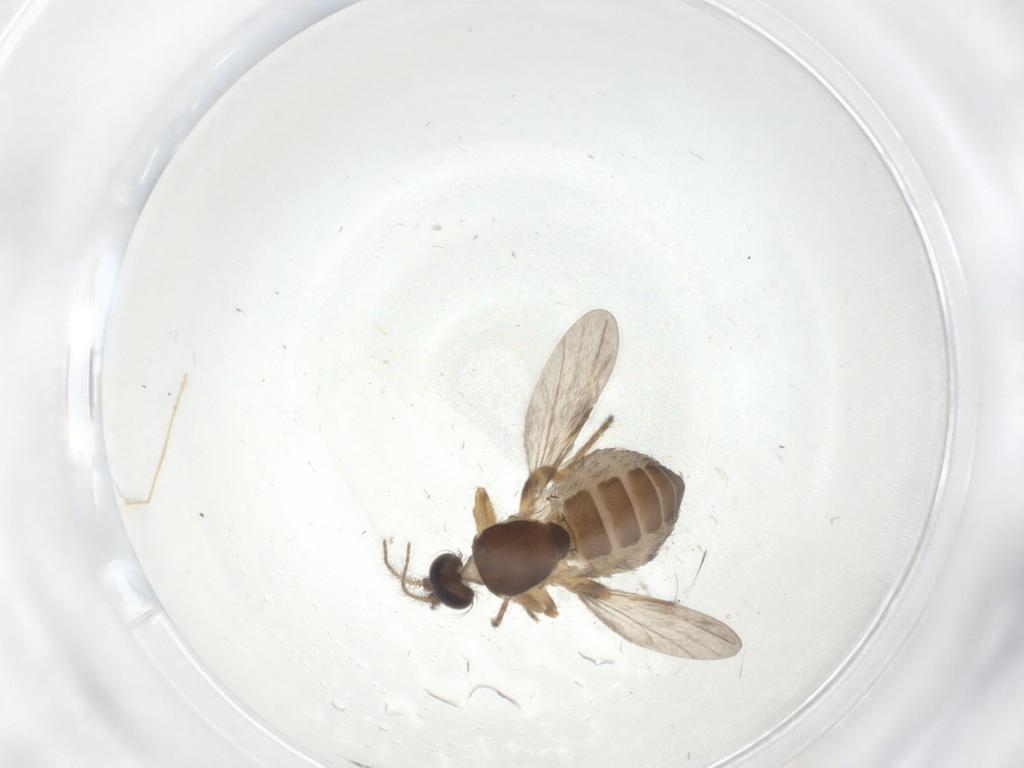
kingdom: Animalia
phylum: Arthropoda
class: Insecta
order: Diptera
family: Ceratopogonidae
